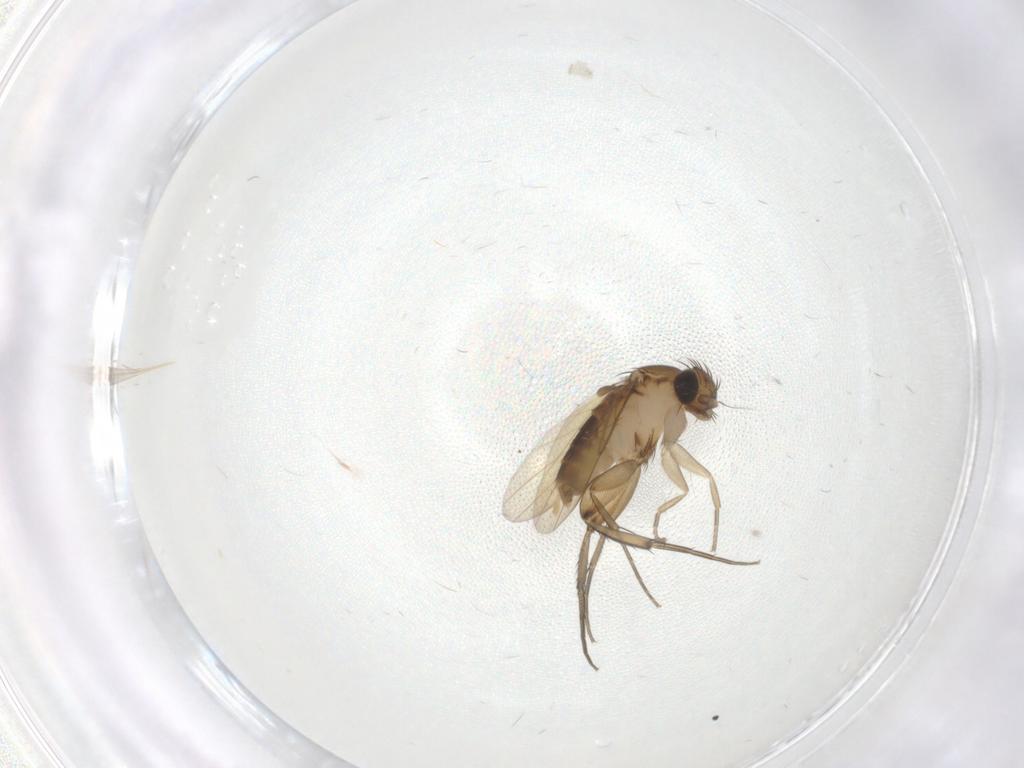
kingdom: Animalia
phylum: Arthropoda
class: Insecta
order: Diptera
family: Phoridae
